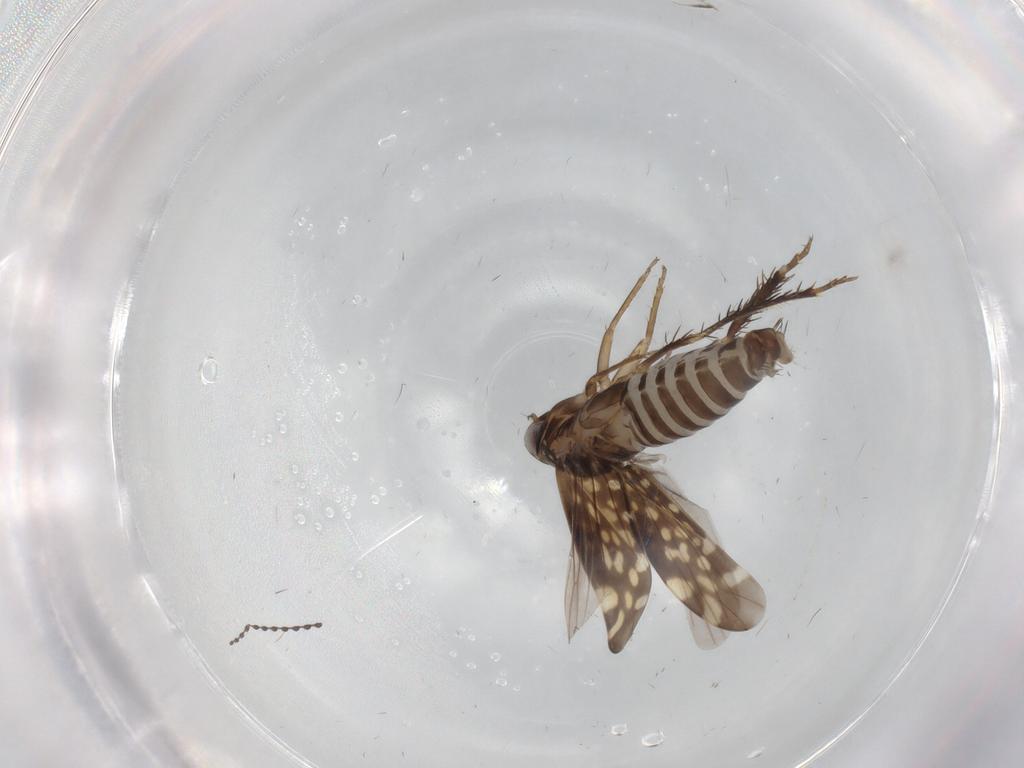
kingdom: Animalia
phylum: Arthropoda
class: Insecta
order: Hemiptera
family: Cicadellidae
